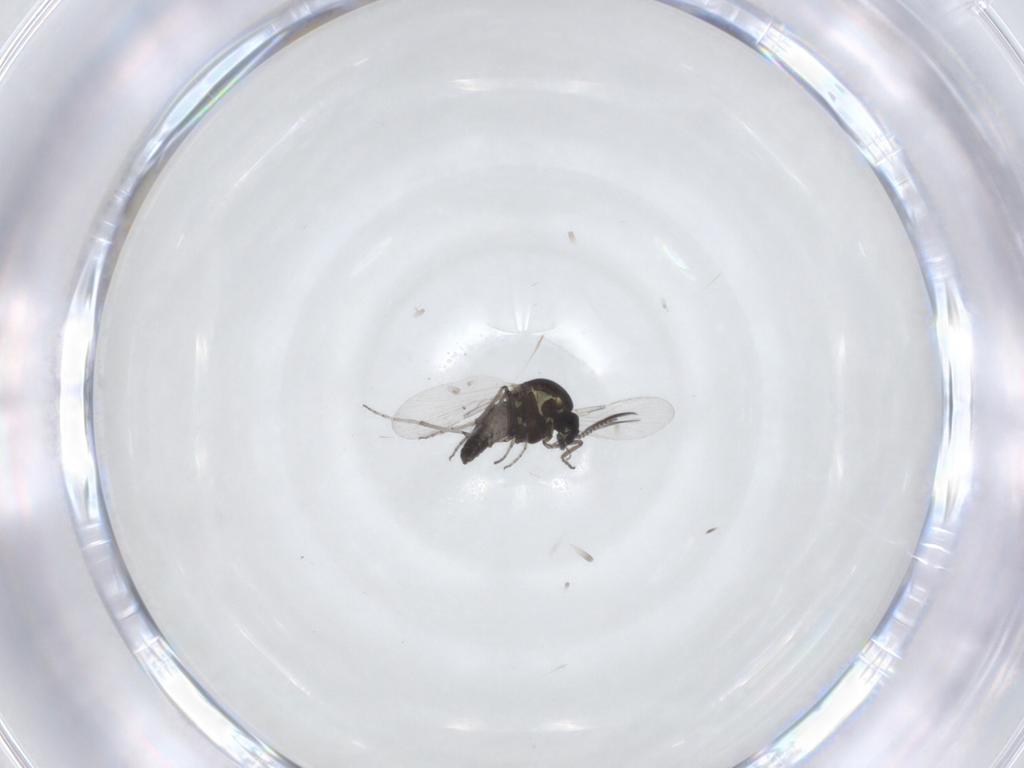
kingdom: Animalia
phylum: Arthropoda
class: Insecta
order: Diptera
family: Ceratopogonidae
